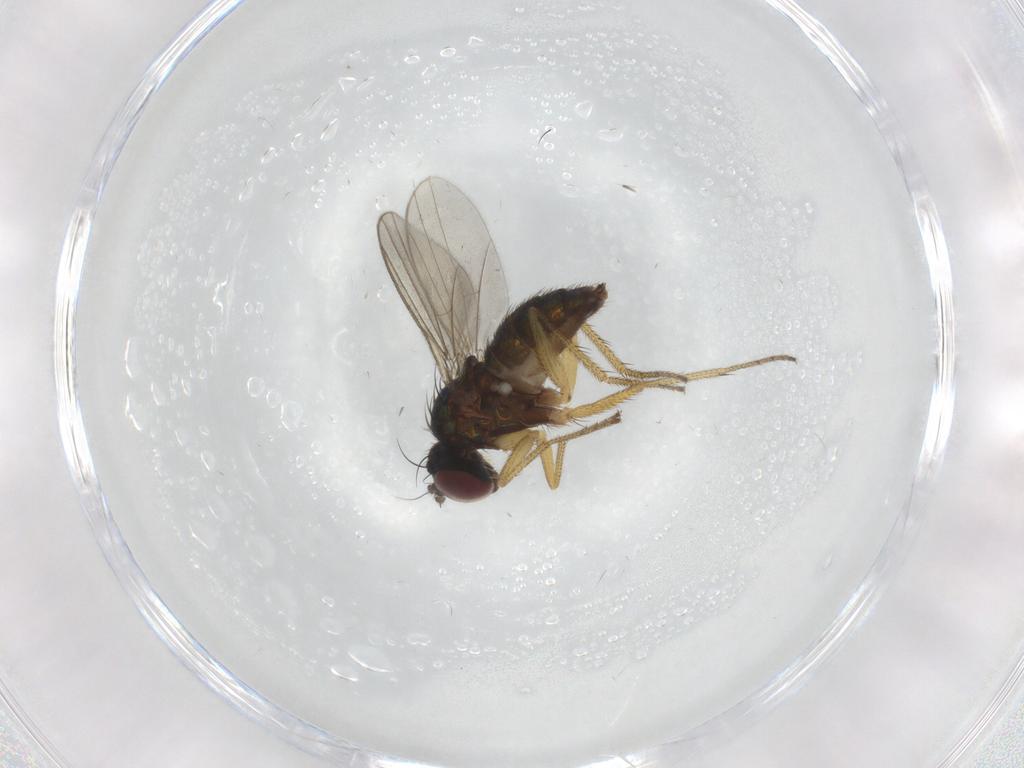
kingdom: Animalia
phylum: Arthropoda
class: Insecta
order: Diptera
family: Dolichopodidae
